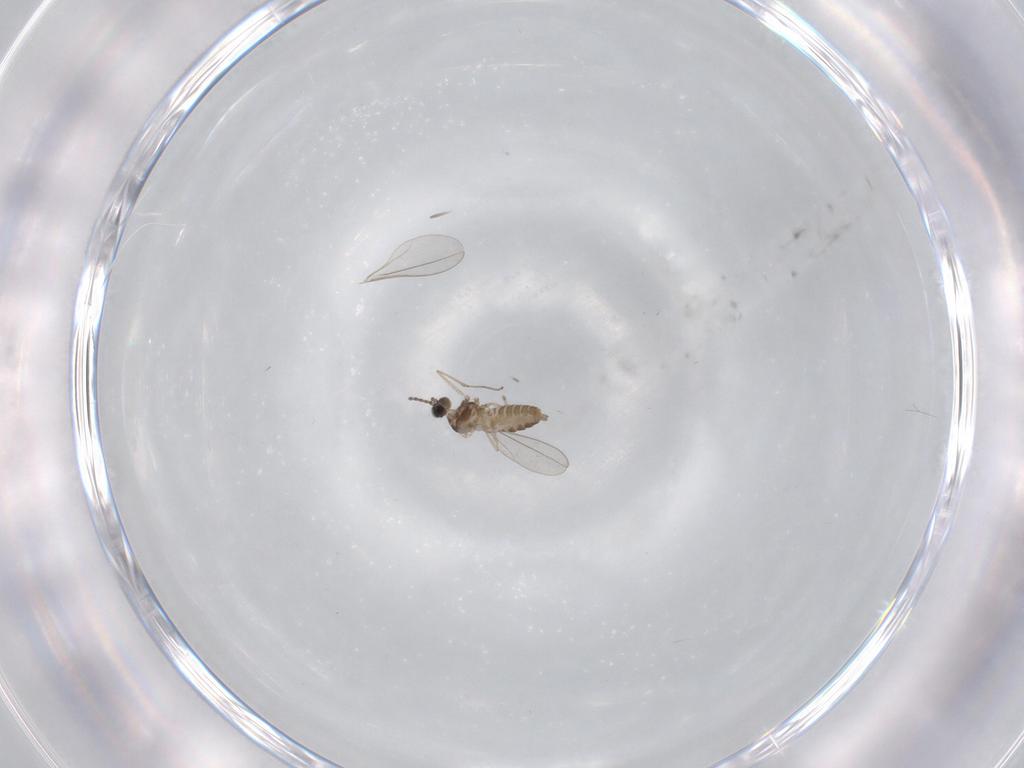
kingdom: Animalia
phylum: Arthropoda
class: Insecta
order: Diptera
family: Cecidomyiidae
